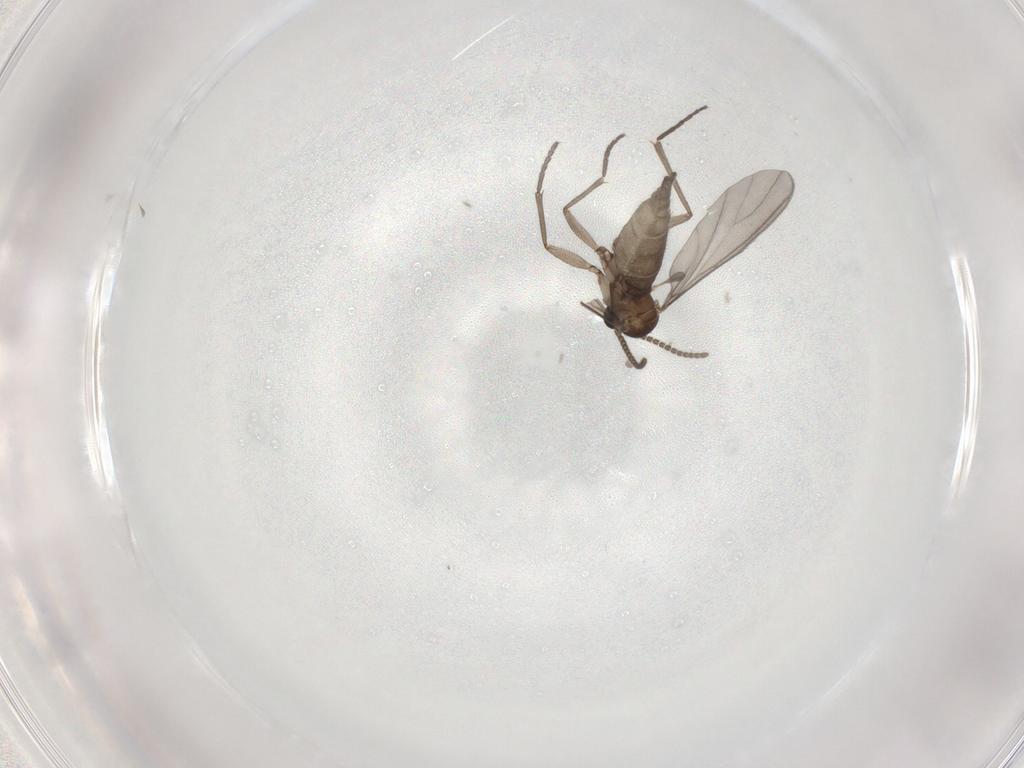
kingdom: Animalia
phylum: Arthropoda
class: Insecta
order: Diptera
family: Sciaridae
